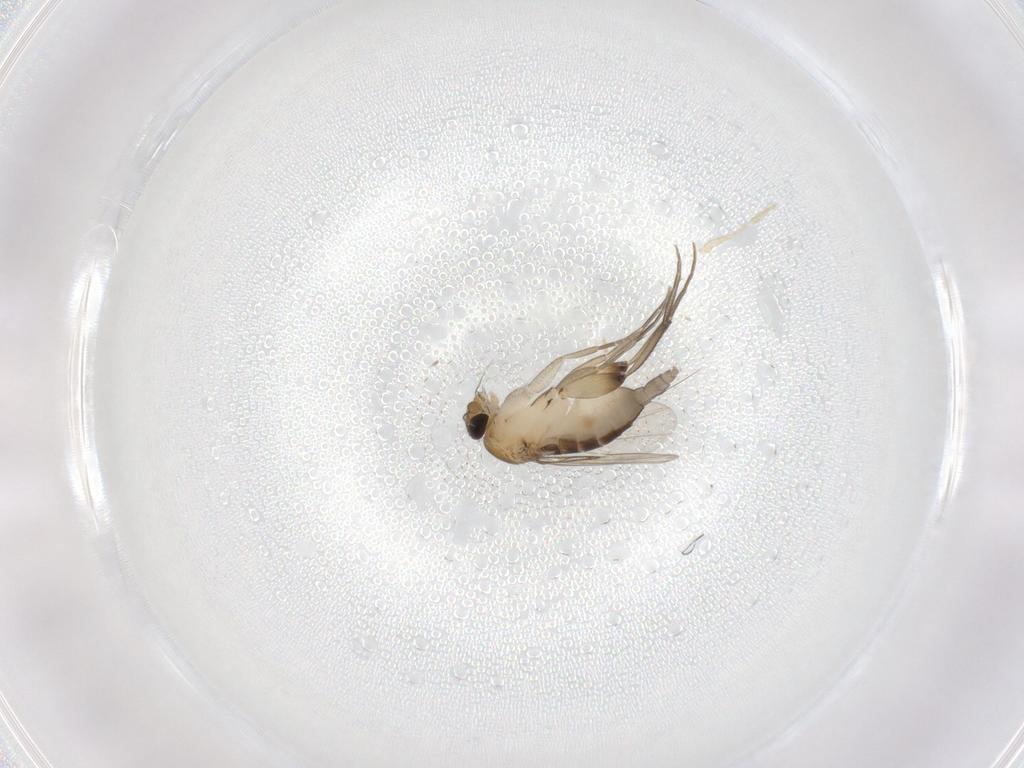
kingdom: Animalia
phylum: Arthropoda
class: Insecta
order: Diptera
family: Phoridae
